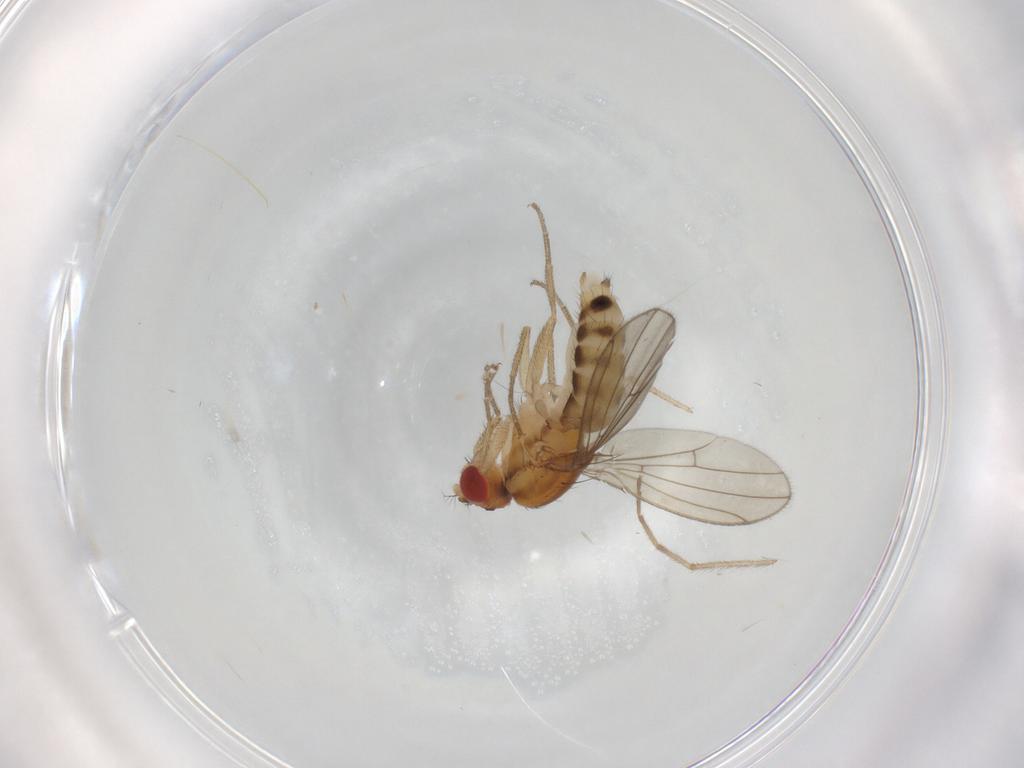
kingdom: Animalia
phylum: Arthropoda
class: Insecta
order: Diptera
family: Drosophilidae
